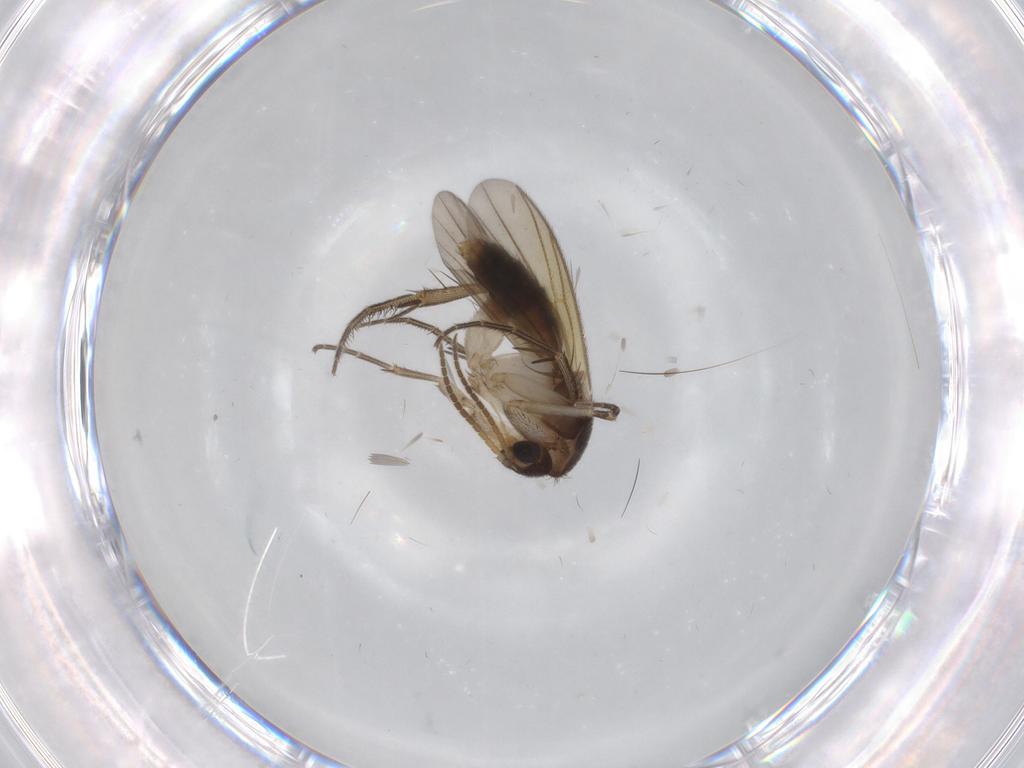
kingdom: Animalia
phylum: Arthropoda
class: Insecta
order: Diptera
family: Mycetophilidae
